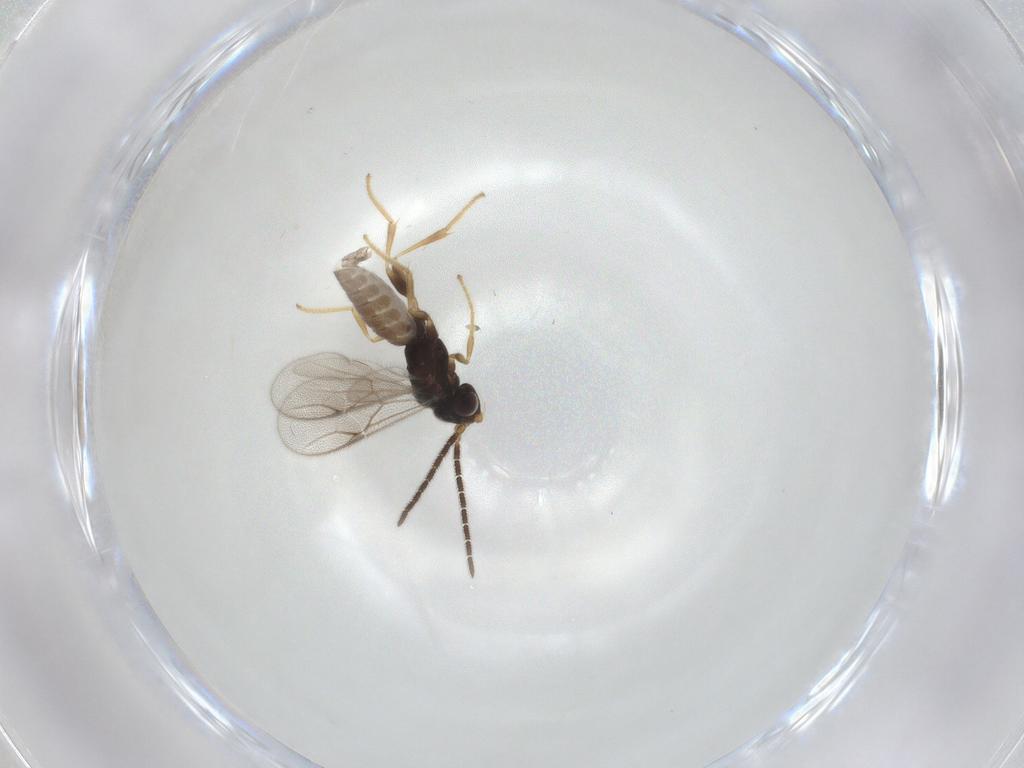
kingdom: Animalia
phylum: Arthropoda
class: Insecta
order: Hymenoptera
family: Dryinidae
